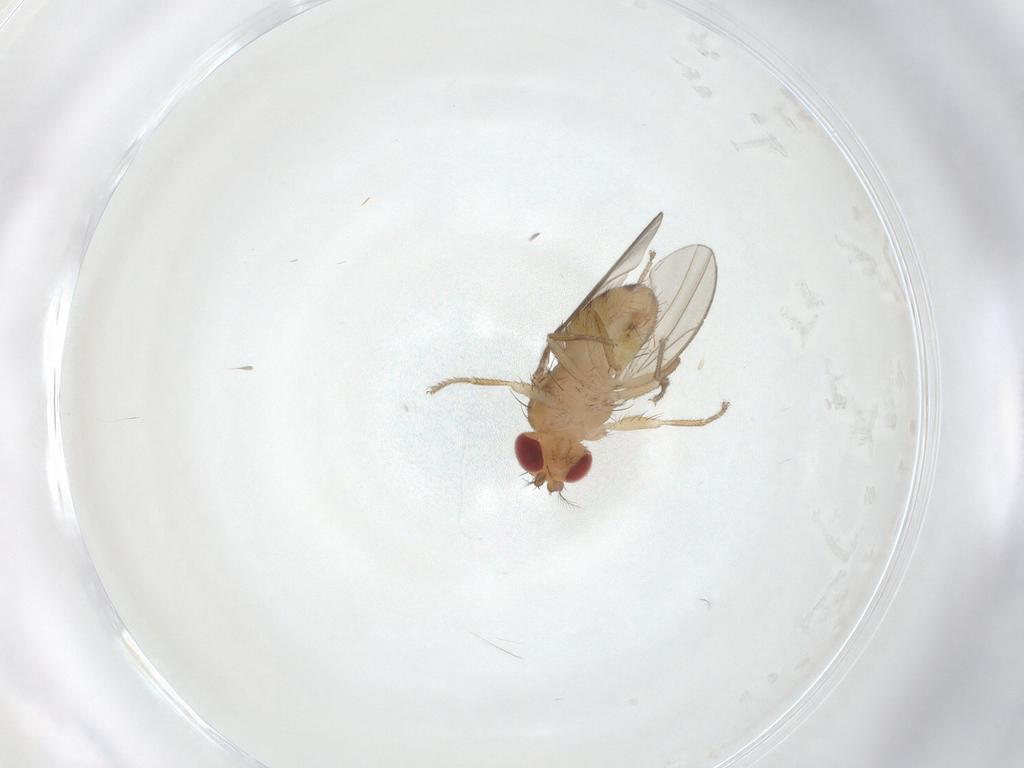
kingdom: Animalia
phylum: Arthropoda
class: Insecta
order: Diptera
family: Drosophilidae
